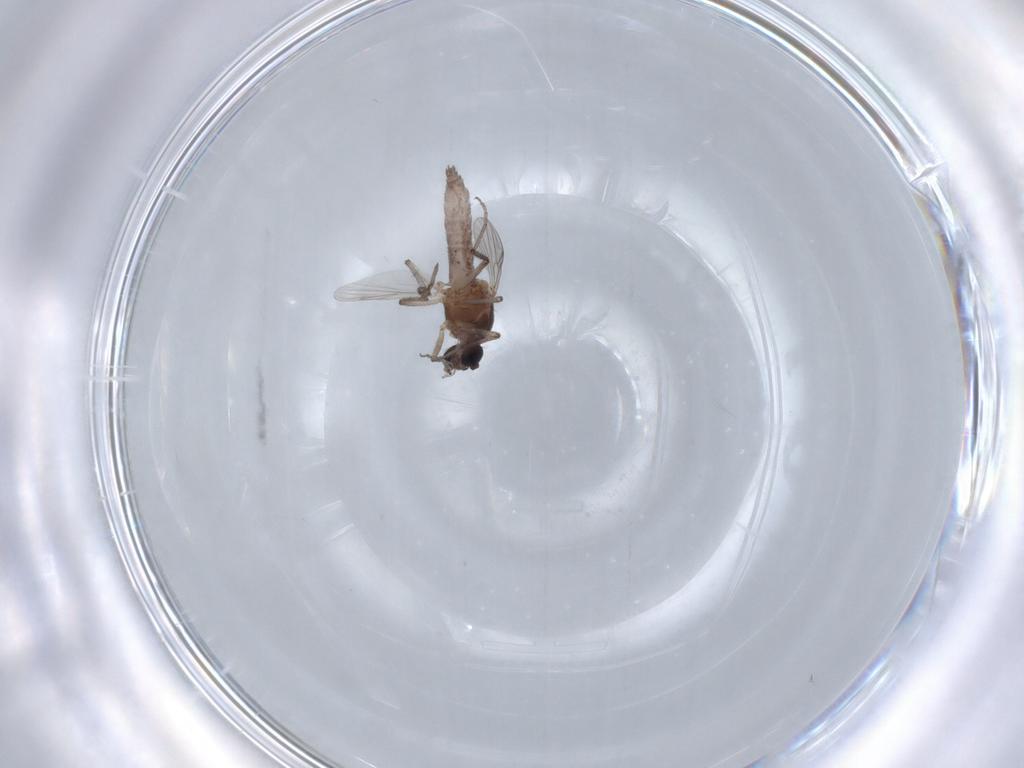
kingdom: Animalia
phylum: Arthropoda
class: Insecta
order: Diptera
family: Ceratopogonidae
